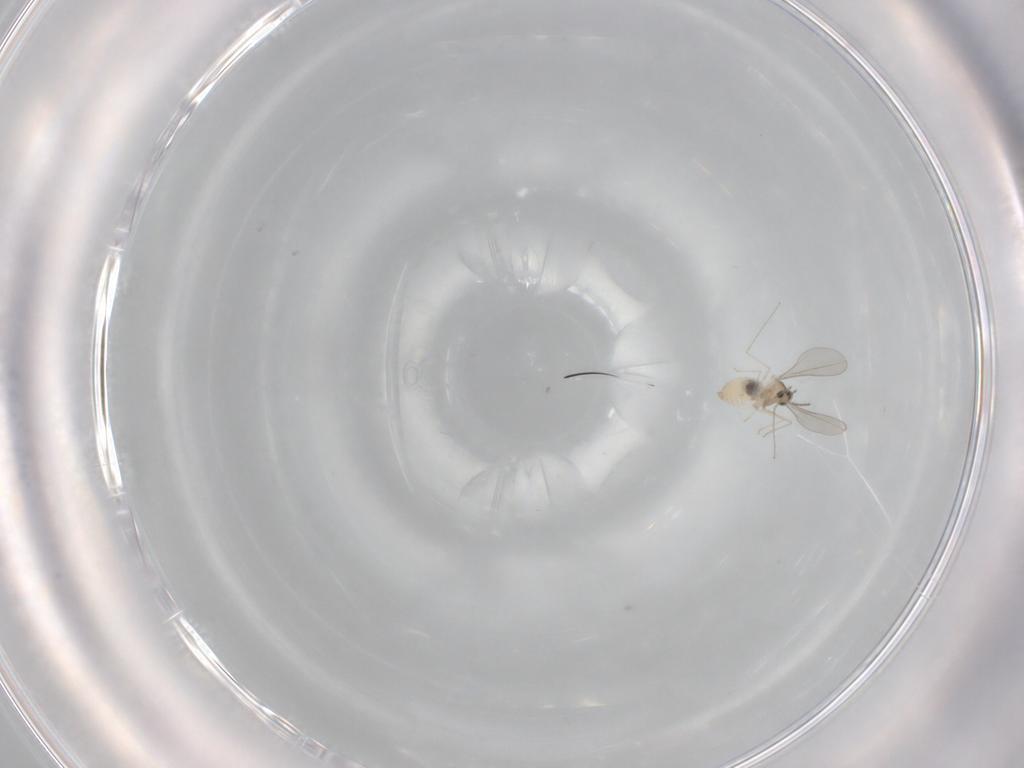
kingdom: Animalia
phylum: Arthropoda
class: Insecta
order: Diptera
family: Cecidomyiidae
